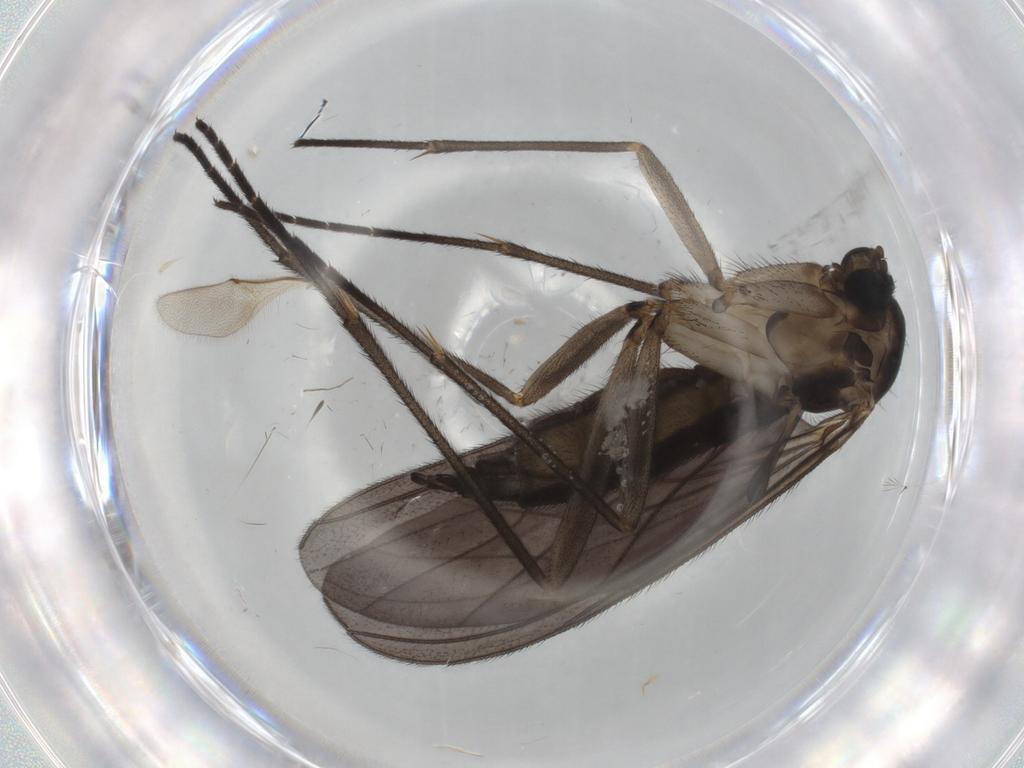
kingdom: Animalia
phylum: Arthropoda
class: Insecta
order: Diptera
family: Sciaridae
